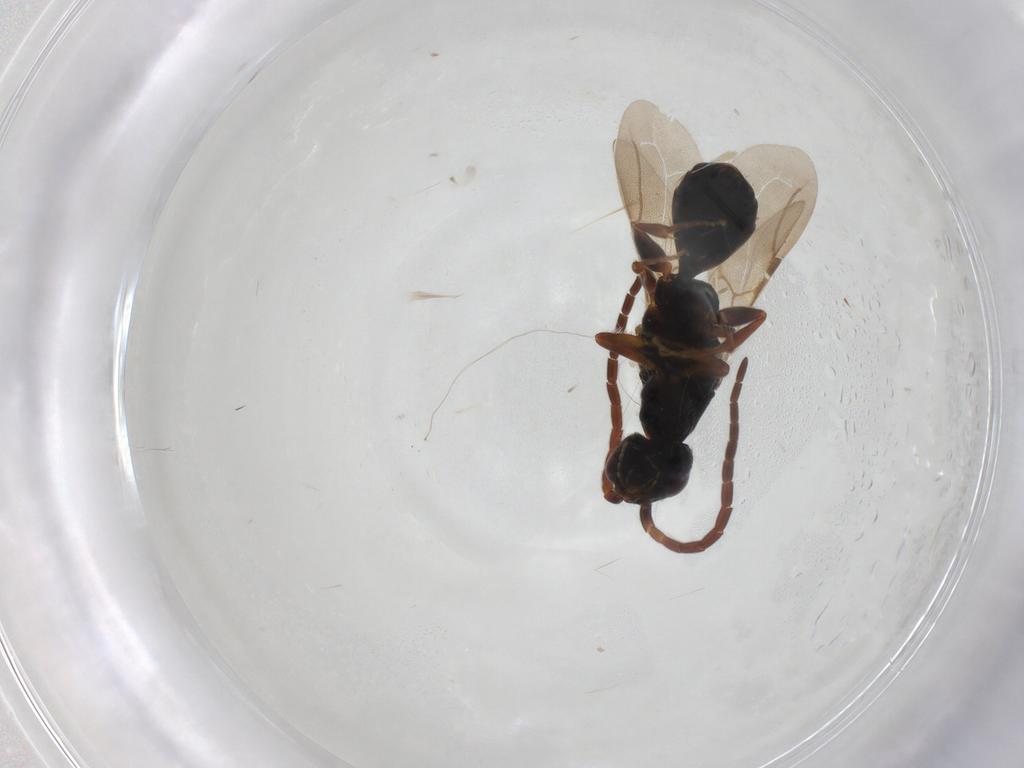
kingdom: Animalia
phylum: Arthropoda
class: Insecta
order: Hymenoptera
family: Bethylidae
